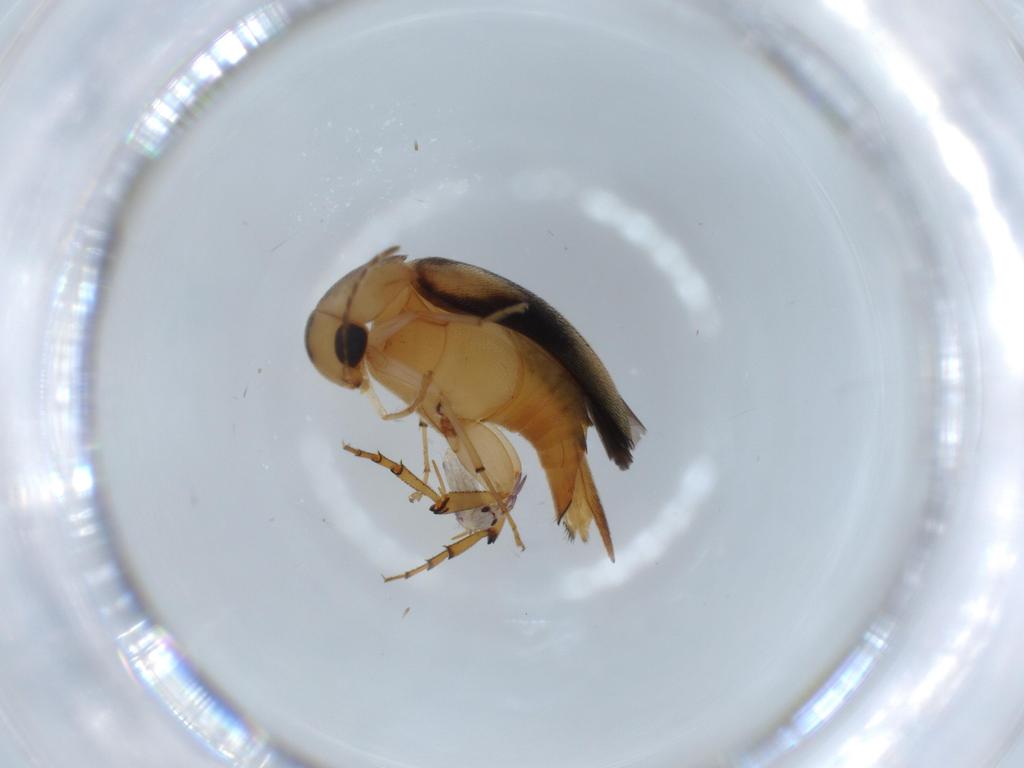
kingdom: Animalia
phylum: Arthropoda
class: Insecta
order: Coleoptera
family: Mordellidae
